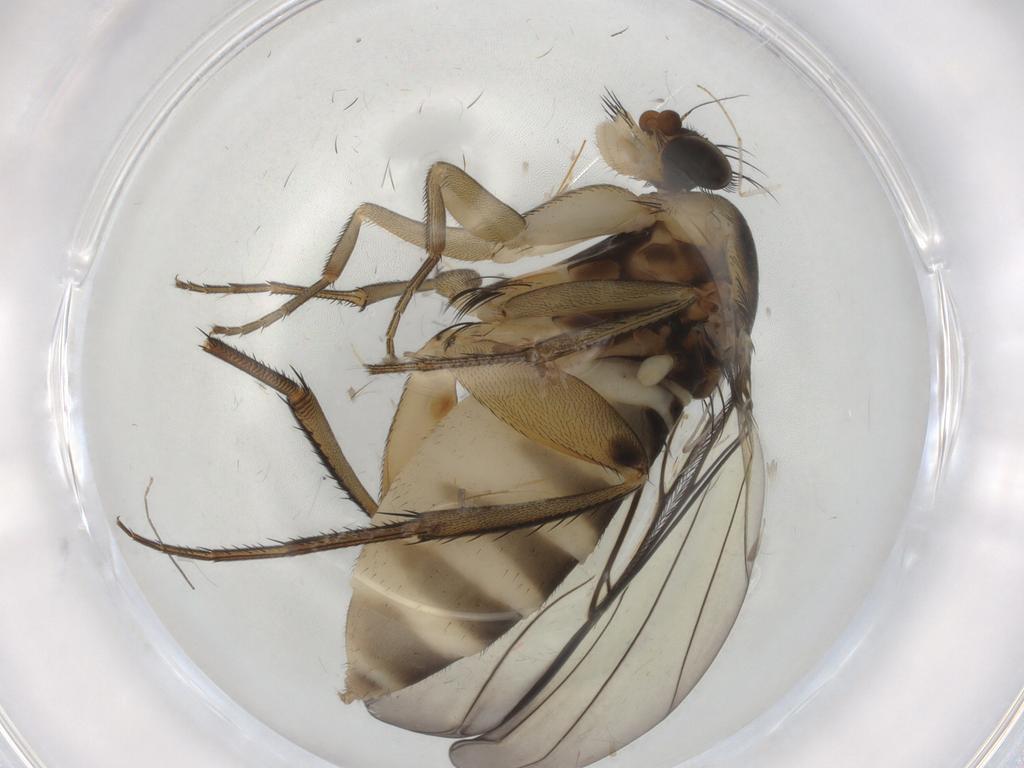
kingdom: Animalia
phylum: Arthropoda
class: Insecta
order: Diptera
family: Phoridae
